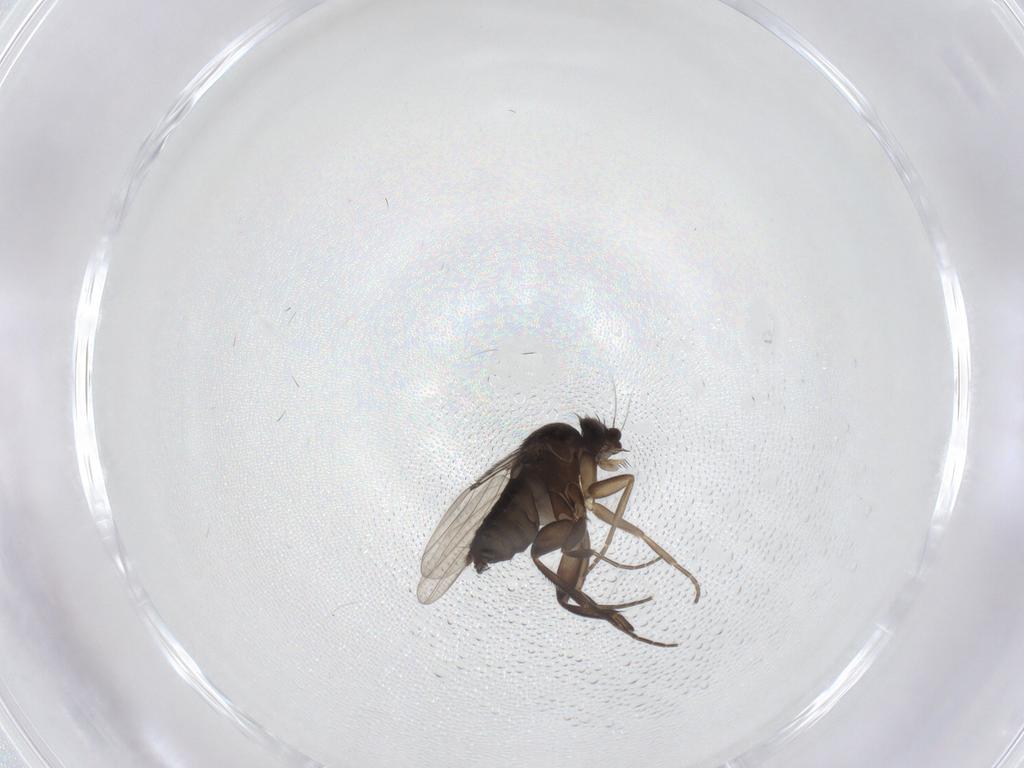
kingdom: Animalia
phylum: Arthropoda
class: Insecta
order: Diptera
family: Phoridae
